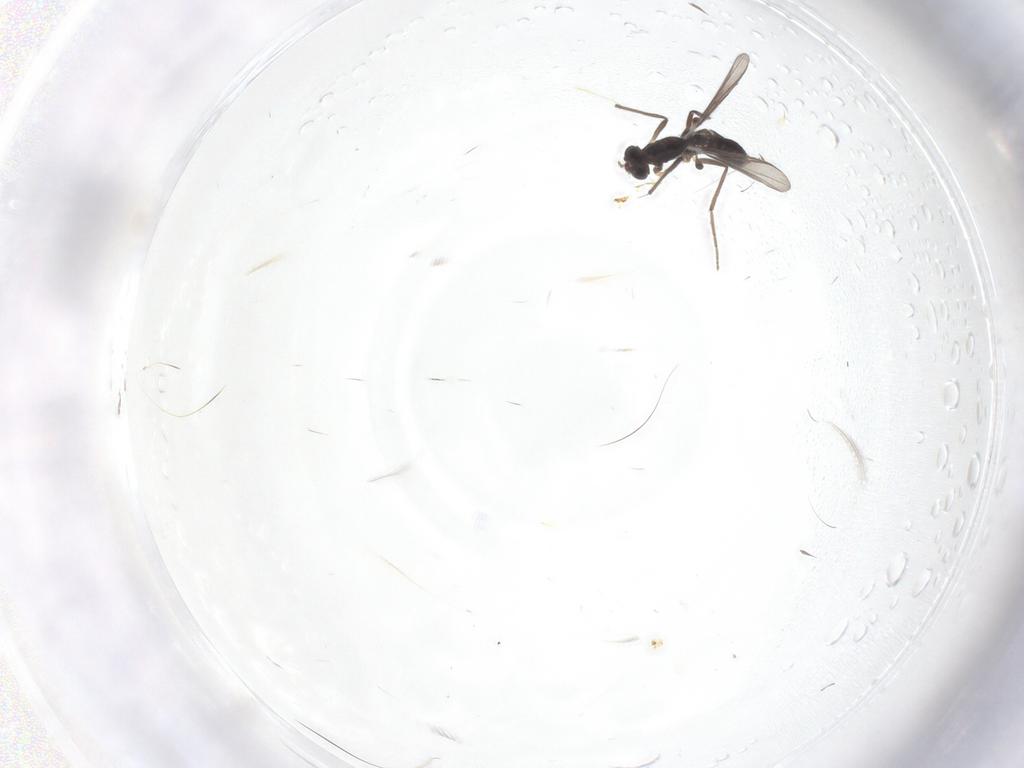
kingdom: Animalia
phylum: Arthropoda
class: Insecta
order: Diptera
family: Chironomidae
